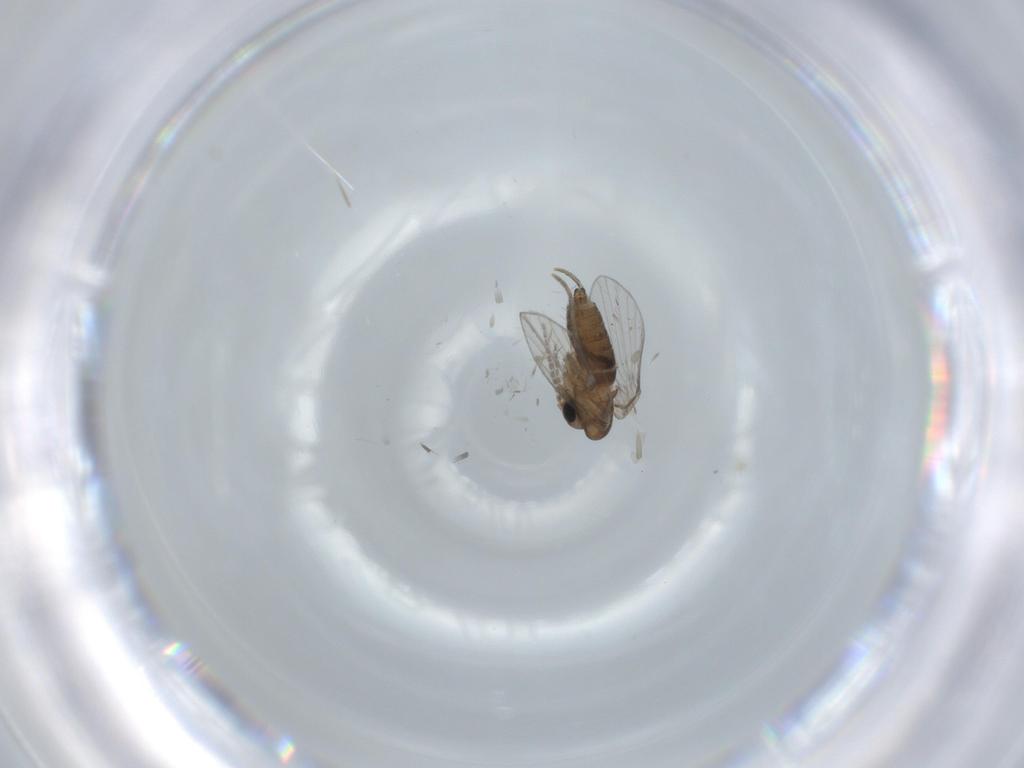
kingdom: Animalia
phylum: Arthropoda
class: Insecta
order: Diptera
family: Psychodidae
